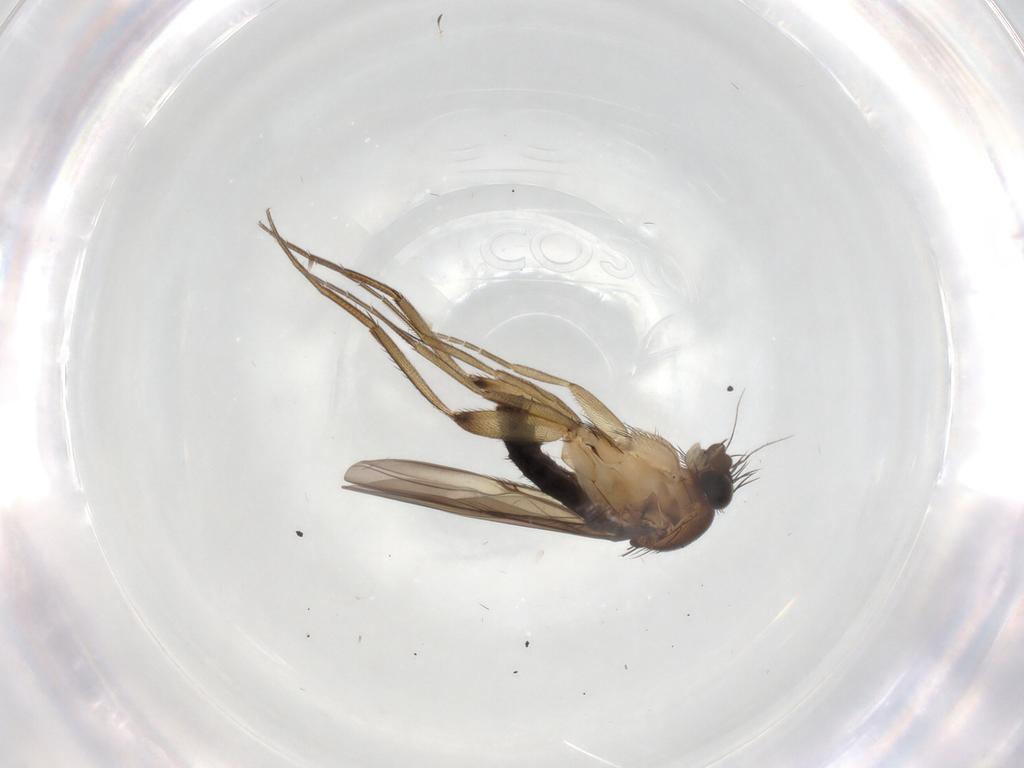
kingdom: Animalia
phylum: Arthropoda
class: Insecta
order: Diptera
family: Phoridae
